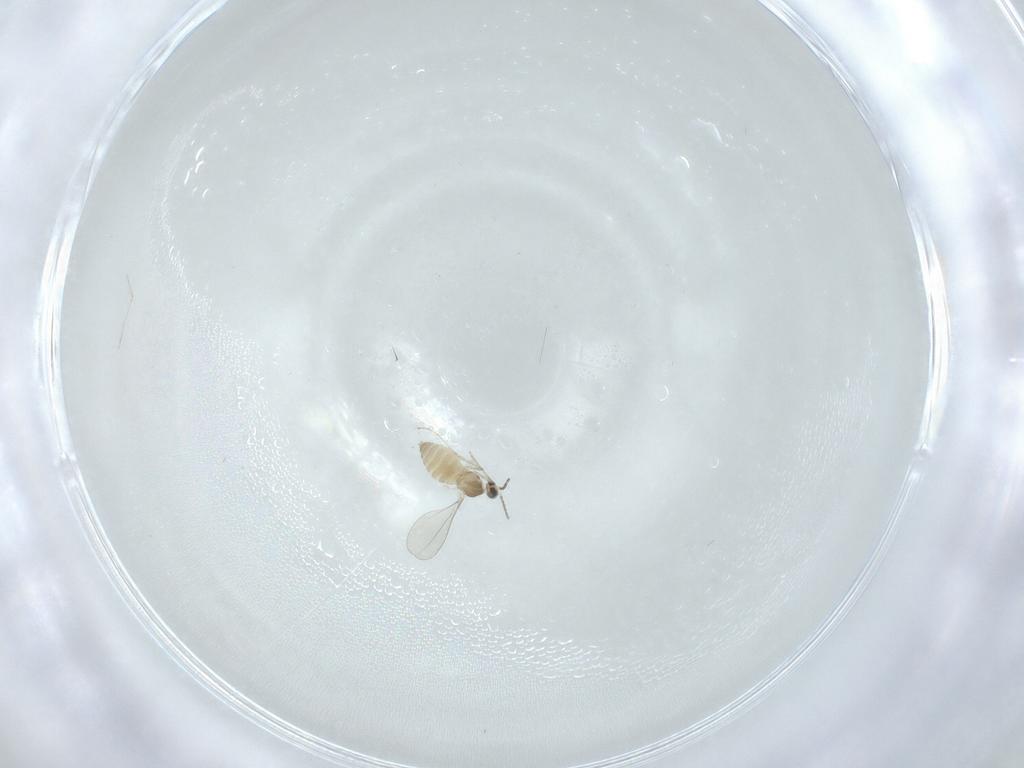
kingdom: Animalia
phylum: Arthropoda
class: Insecta
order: Diptera
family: Cecidomyiidae
